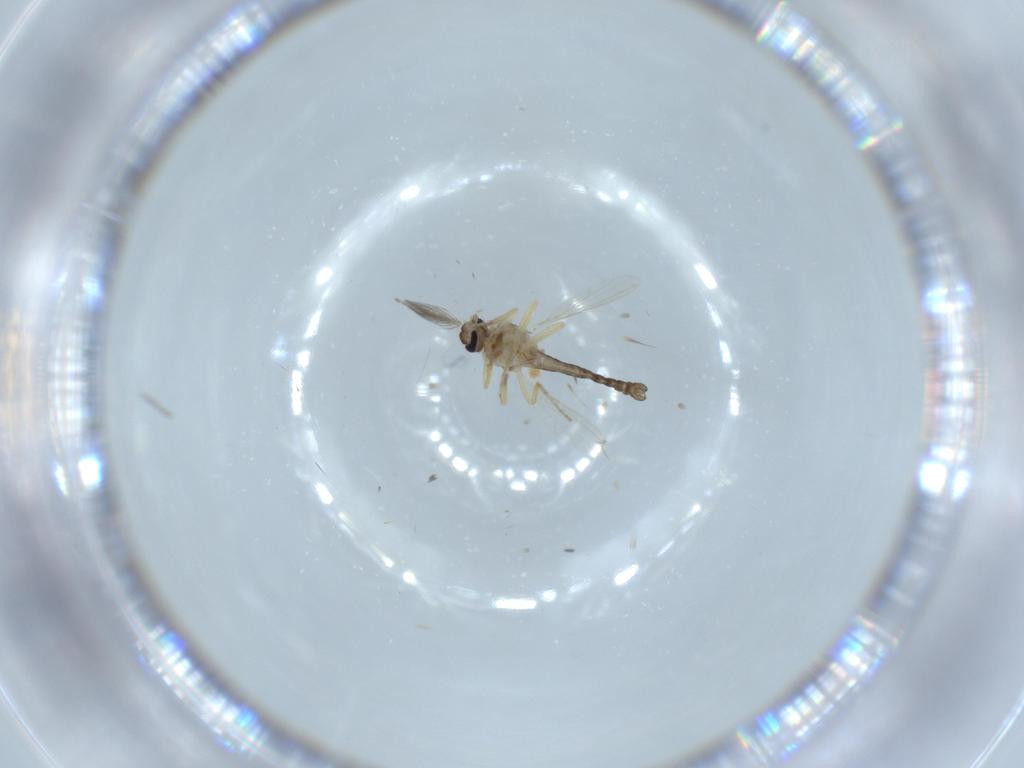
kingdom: Animalia
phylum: Arthropoda
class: Insecta
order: Diptera
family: Ceratopogonidae
